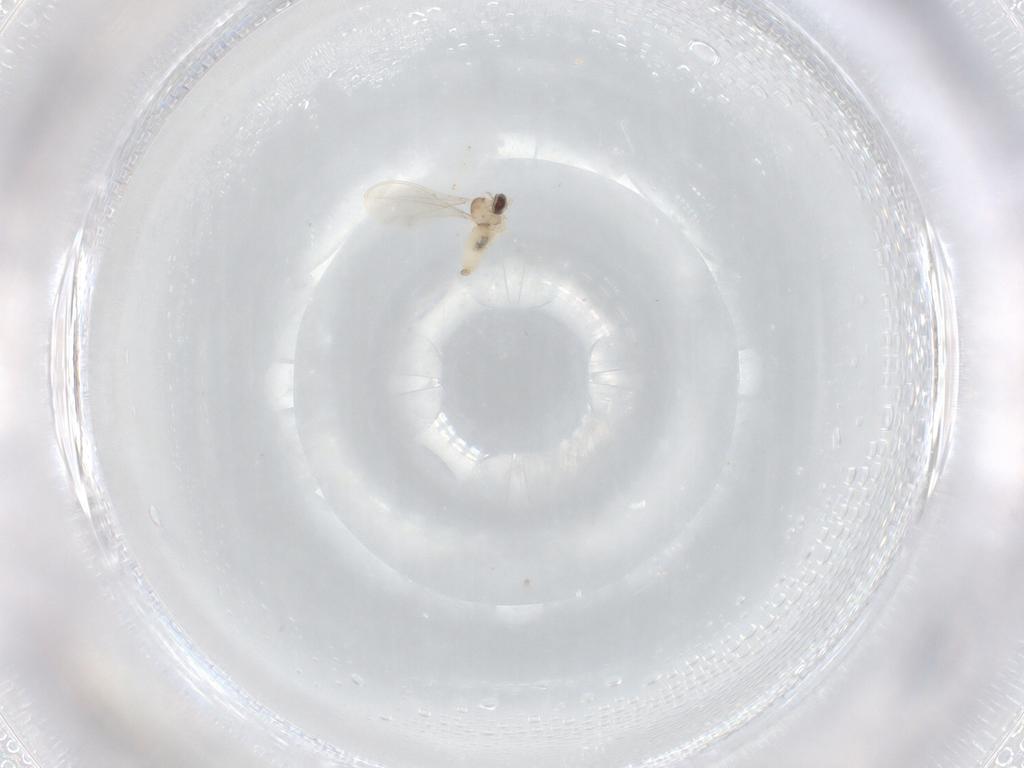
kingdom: Animalia
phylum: Arthropoda
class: Insecta
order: Diptera
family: Cecidomyiidae
